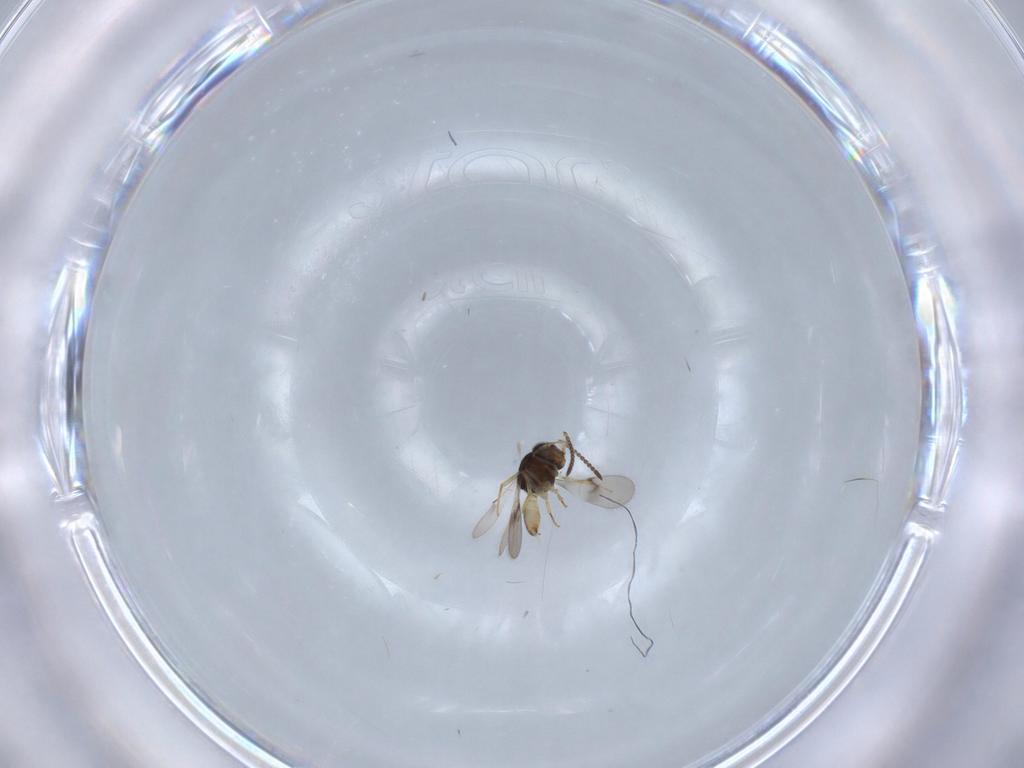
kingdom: Animalia
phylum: Arthropoda
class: Insecta
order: Hymenoptera
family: Scelionidae
